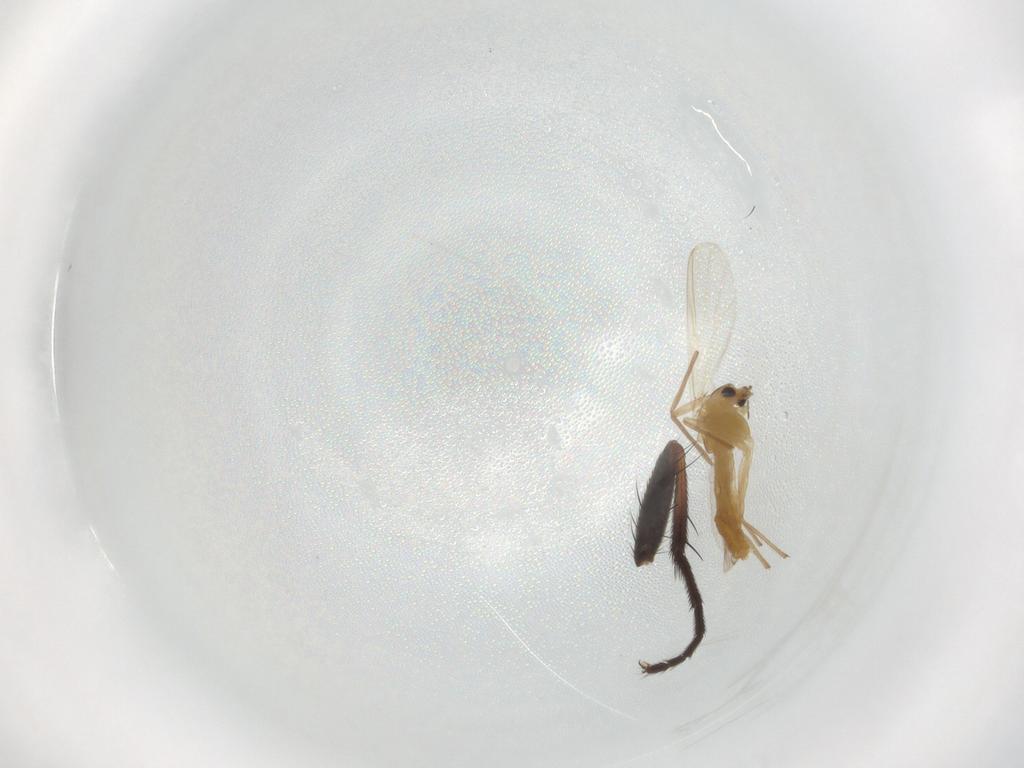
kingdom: Animalia
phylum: Arthropoda
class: Insecta
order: Diptera
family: Chironomidae
